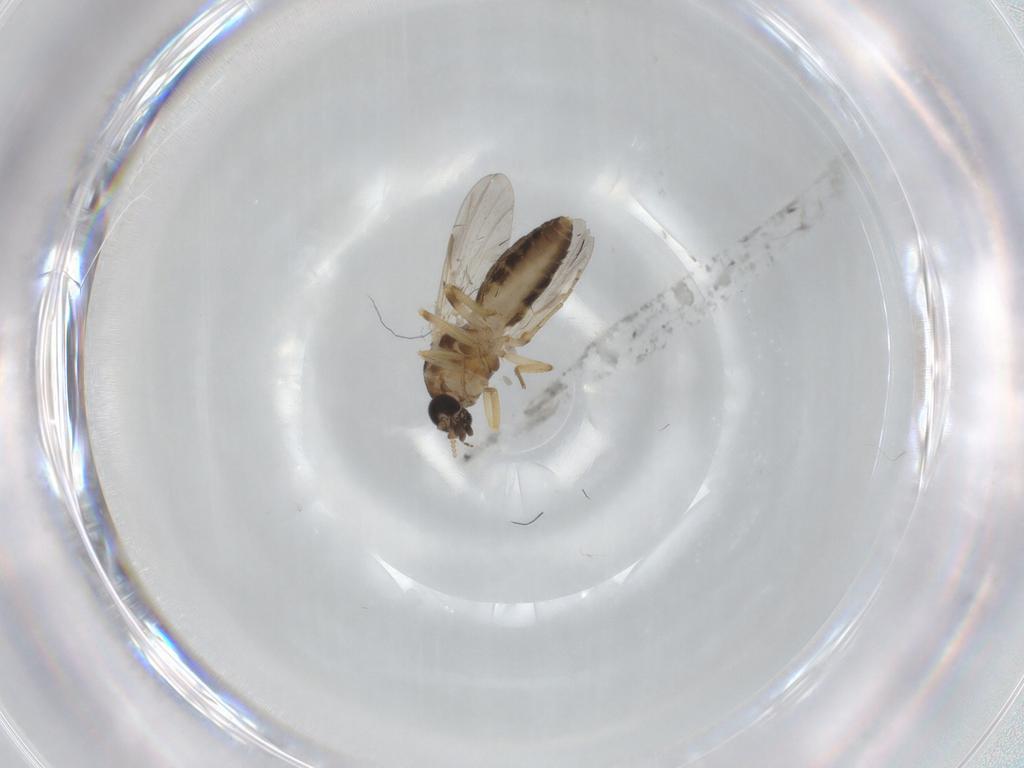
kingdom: Animalia
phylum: Arthropoda
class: Insecta
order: Diptera
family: Ceratopogonidae
